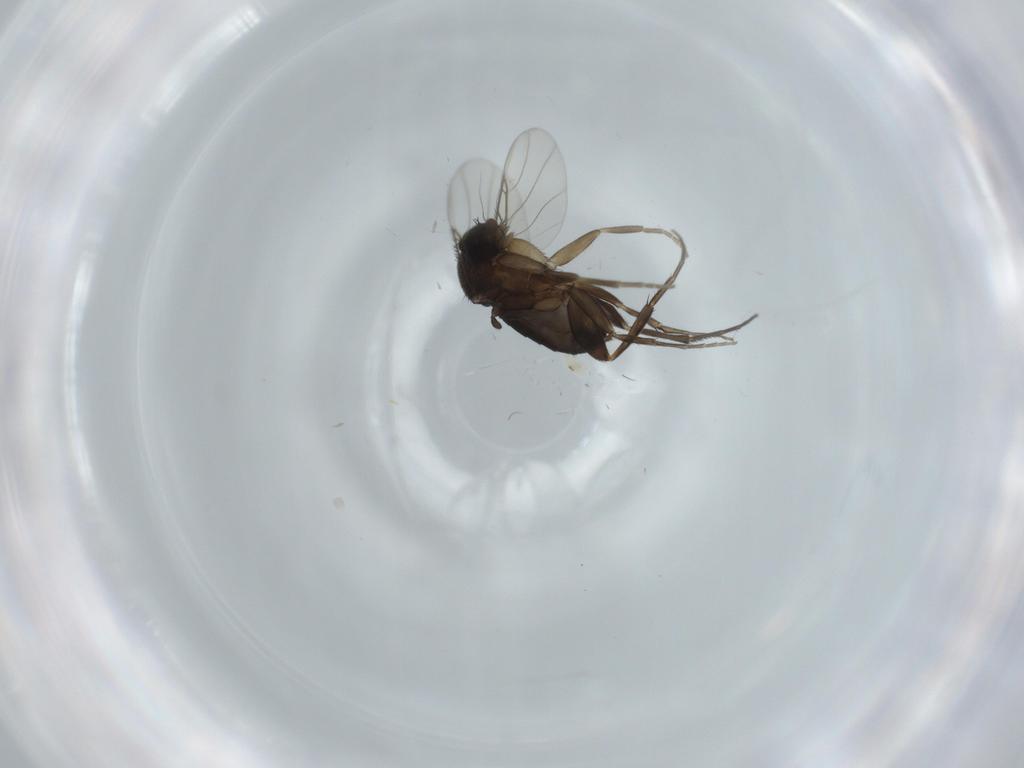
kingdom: Animalia
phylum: Arthropoda
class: Insecta
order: Diptera
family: Phoridae
